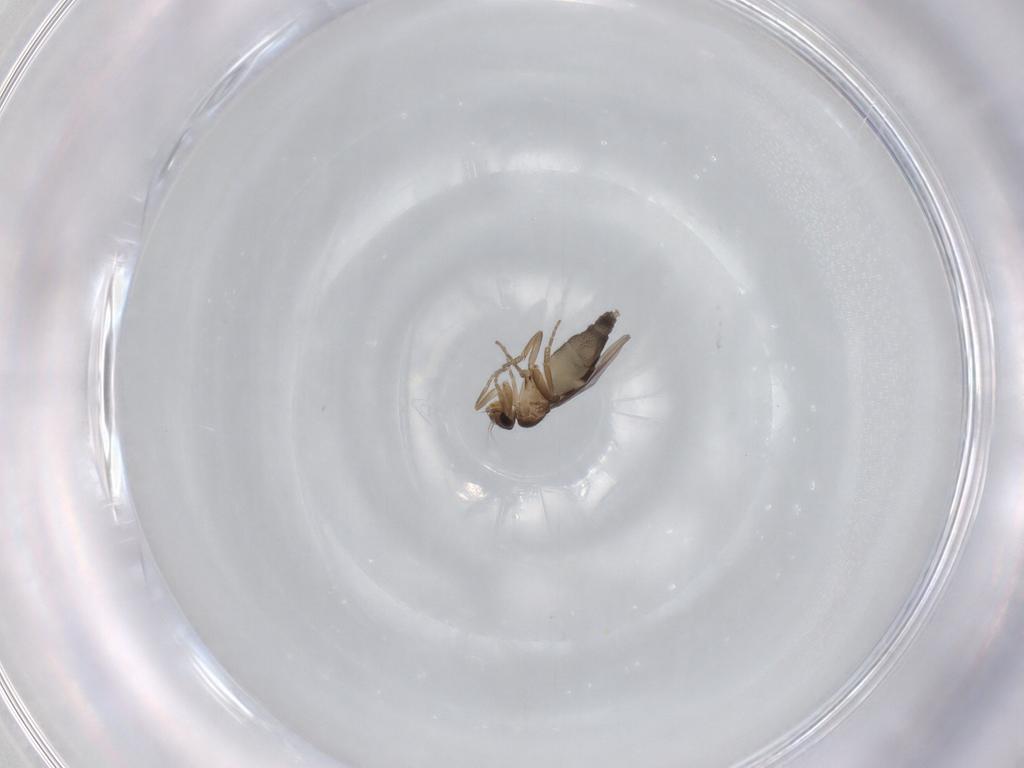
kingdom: Animalia
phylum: Arthropoda
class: Insecta
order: Diptera
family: Phoridae
